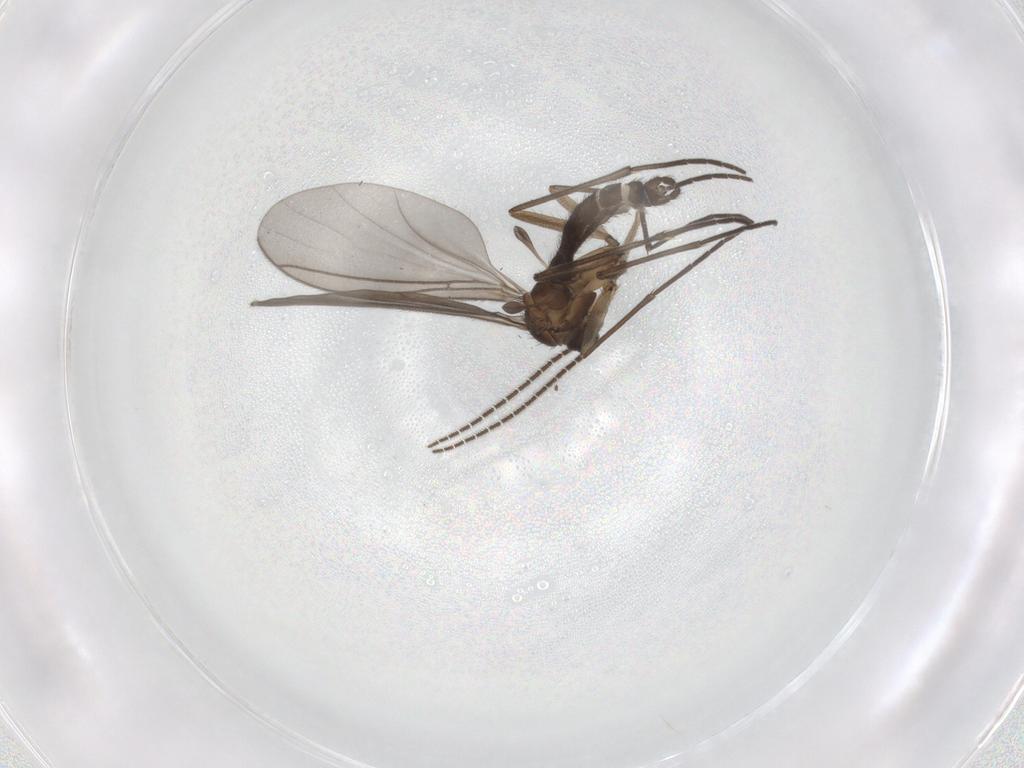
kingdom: Animalia
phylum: Arthropoda
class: Insecta
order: Diptera
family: Sciaridae
